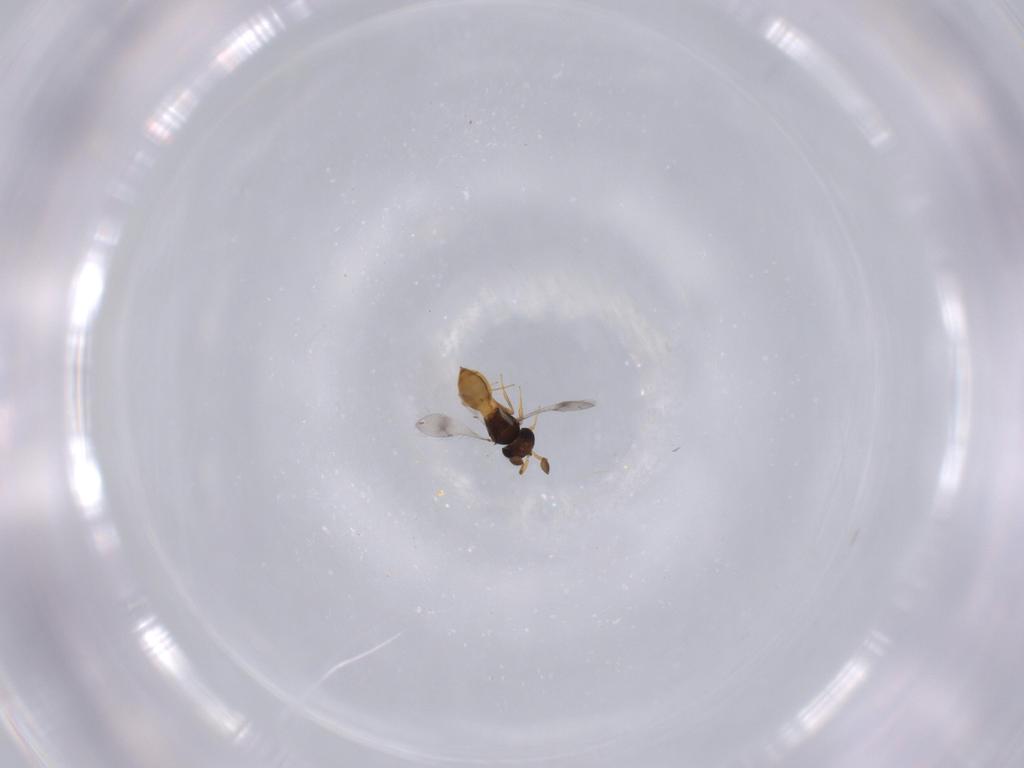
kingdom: Animalia
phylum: Arthropoda
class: Insecta
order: Hymenoptera
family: Scelionidae
